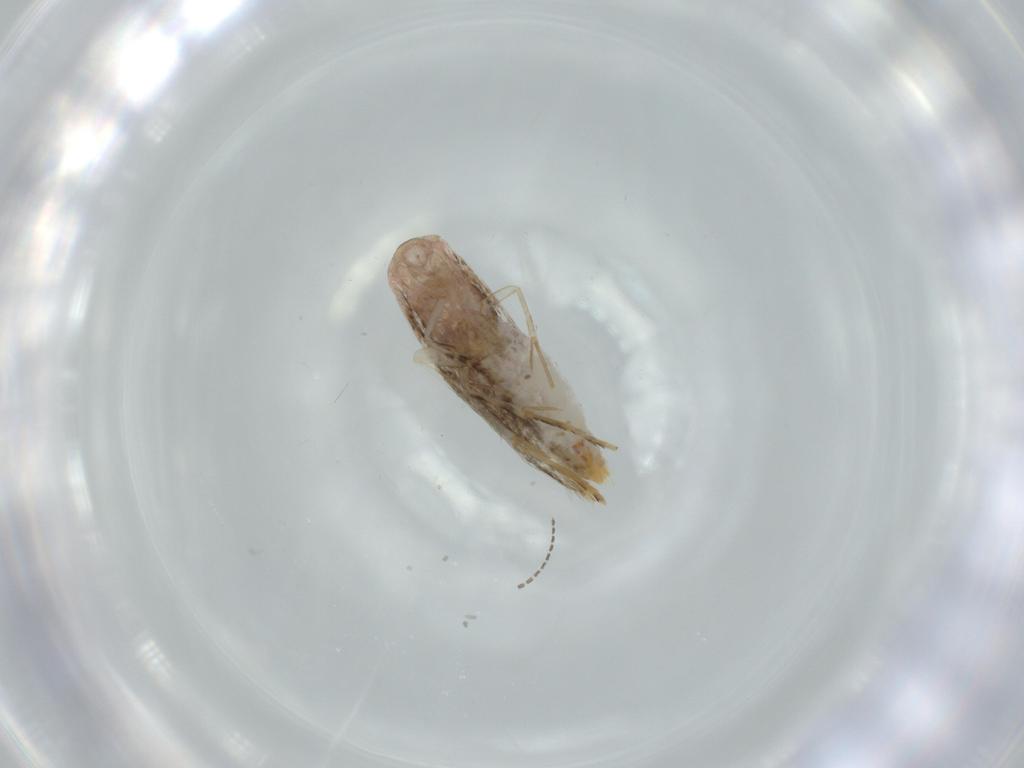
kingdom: Animalia
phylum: Arthropoda
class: Insecta
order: Lepidoptera
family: Tineidae
